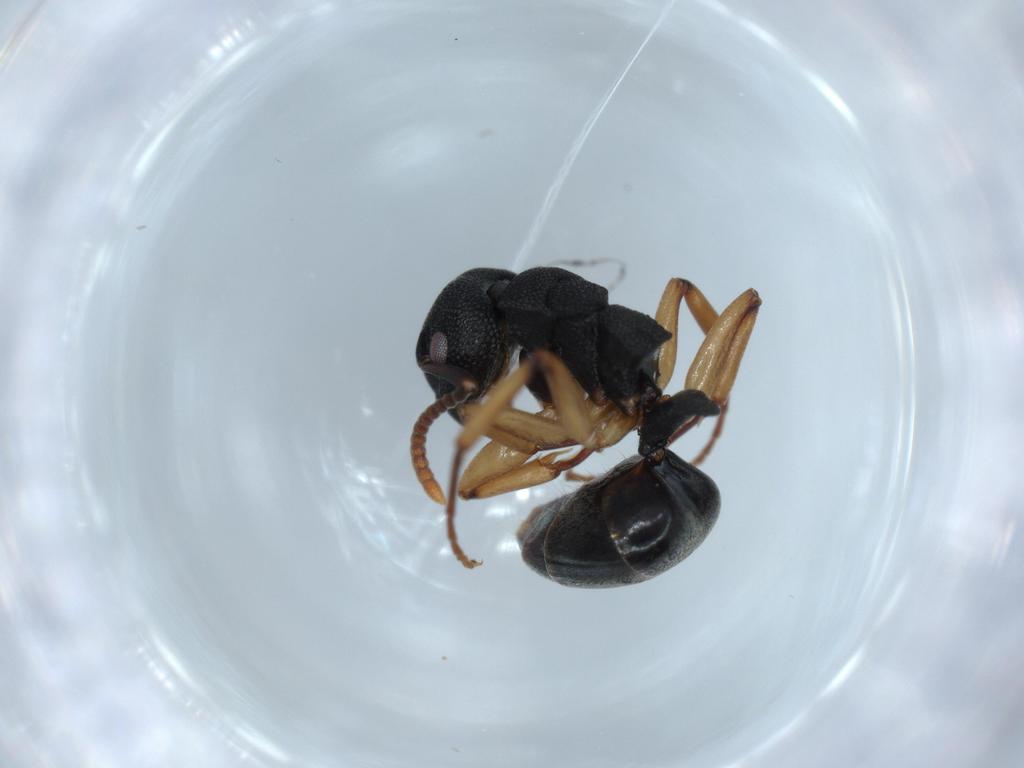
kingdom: Animalia
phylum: Arthropoda
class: Insecta
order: Hymenoptera
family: Formicidae
